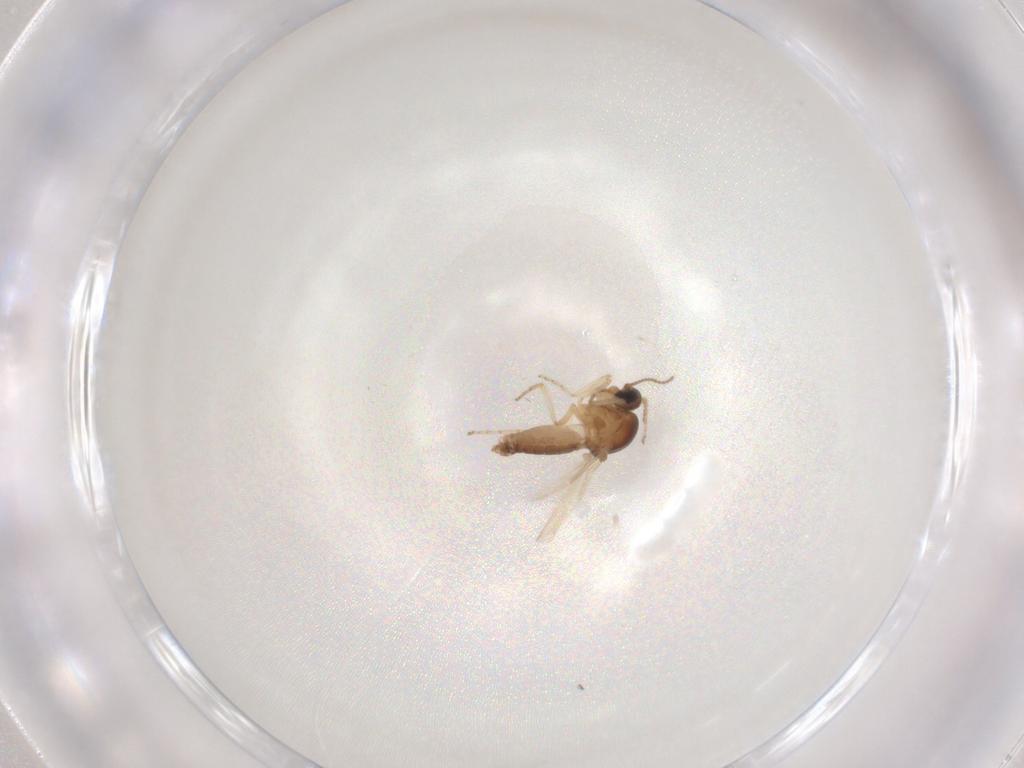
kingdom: Animalia
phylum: Arthropoda
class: Insecta
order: Diptera
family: Ceratopogonidae
